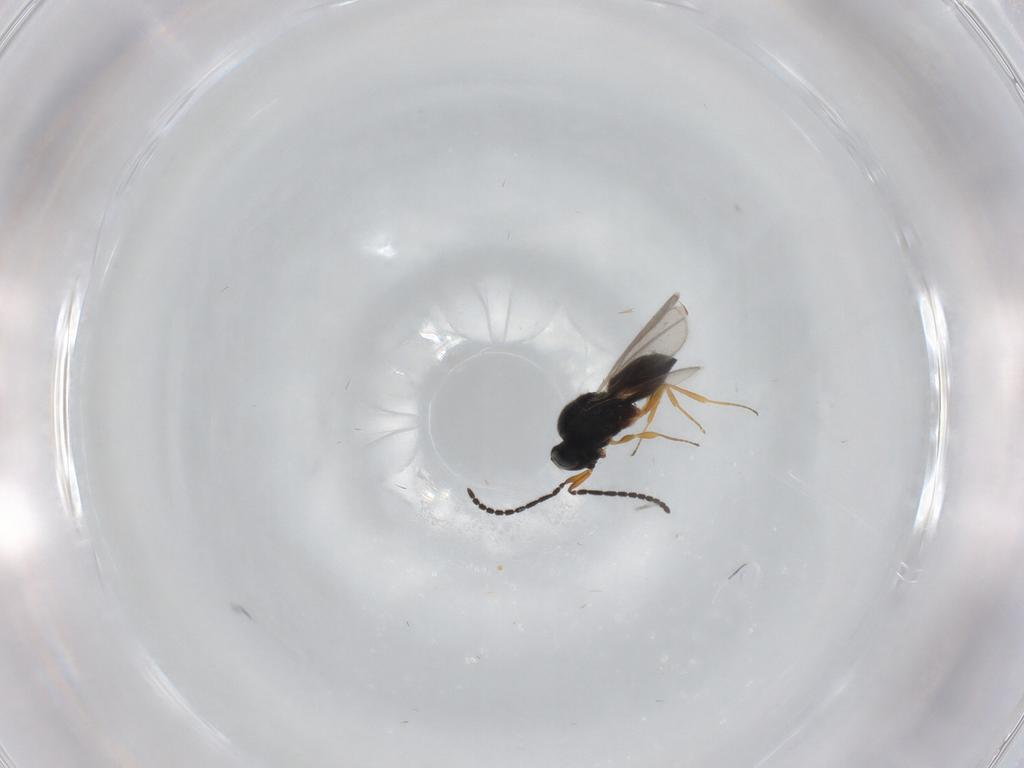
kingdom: Animalia
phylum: Arthropoda
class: Insecta
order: Hymenoptera
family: Scelionidae
